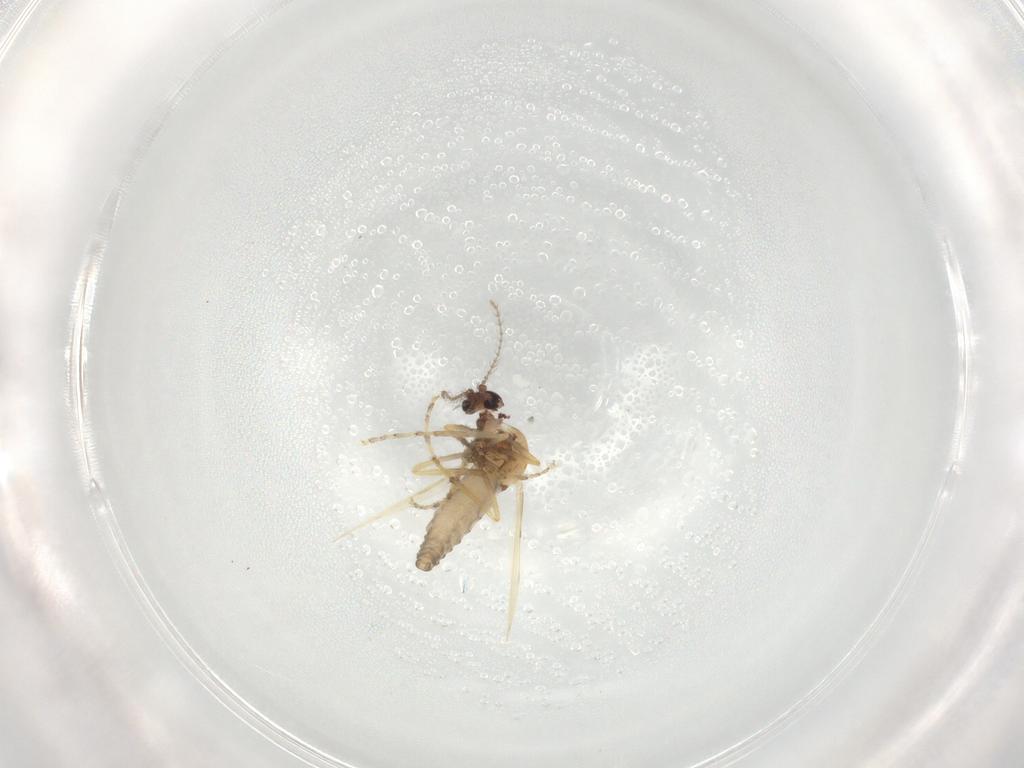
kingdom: Animalia
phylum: Arthropoda
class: Insecta
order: Diptera
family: Ceratopogonidae
